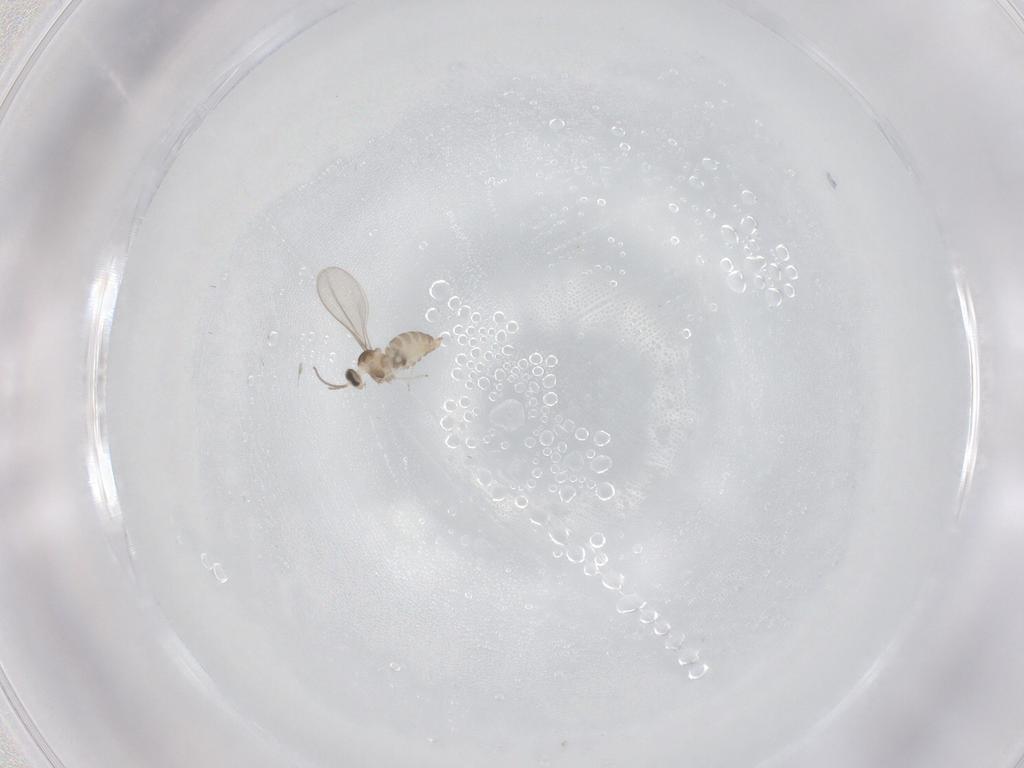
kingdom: Animalia
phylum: Arthropoda
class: Insecta
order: Diptera
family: Cecidomyiidae
